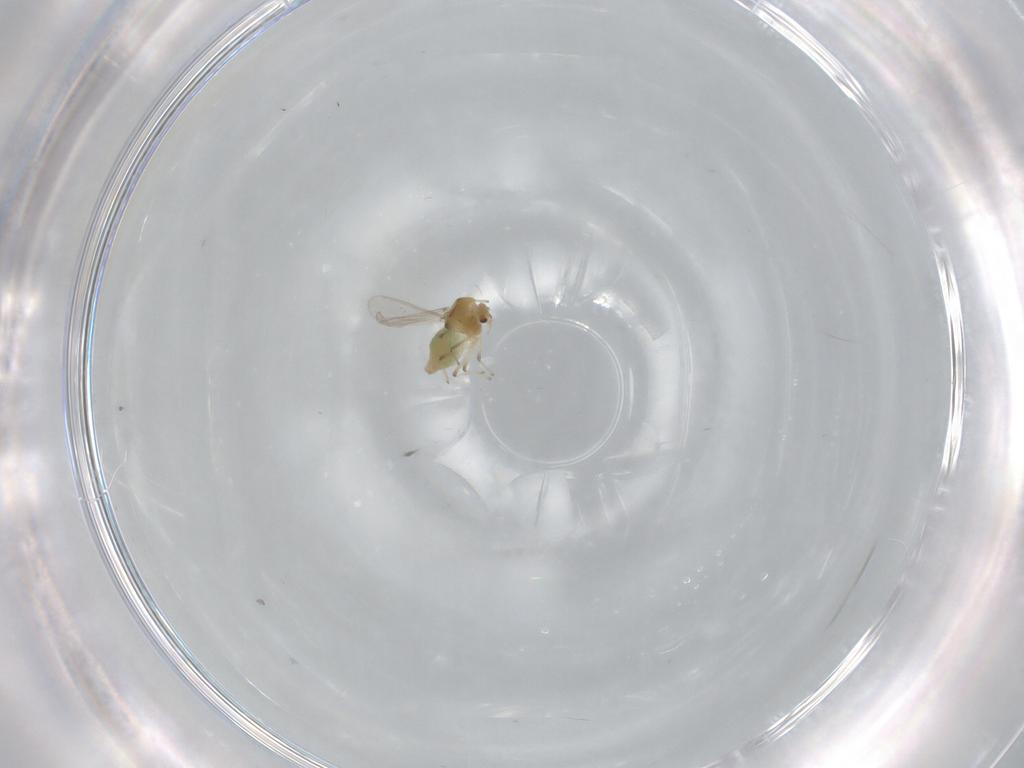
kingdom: Animalia
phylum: Arthropoda
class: Insecta
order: Diptera
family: Chironomidae
